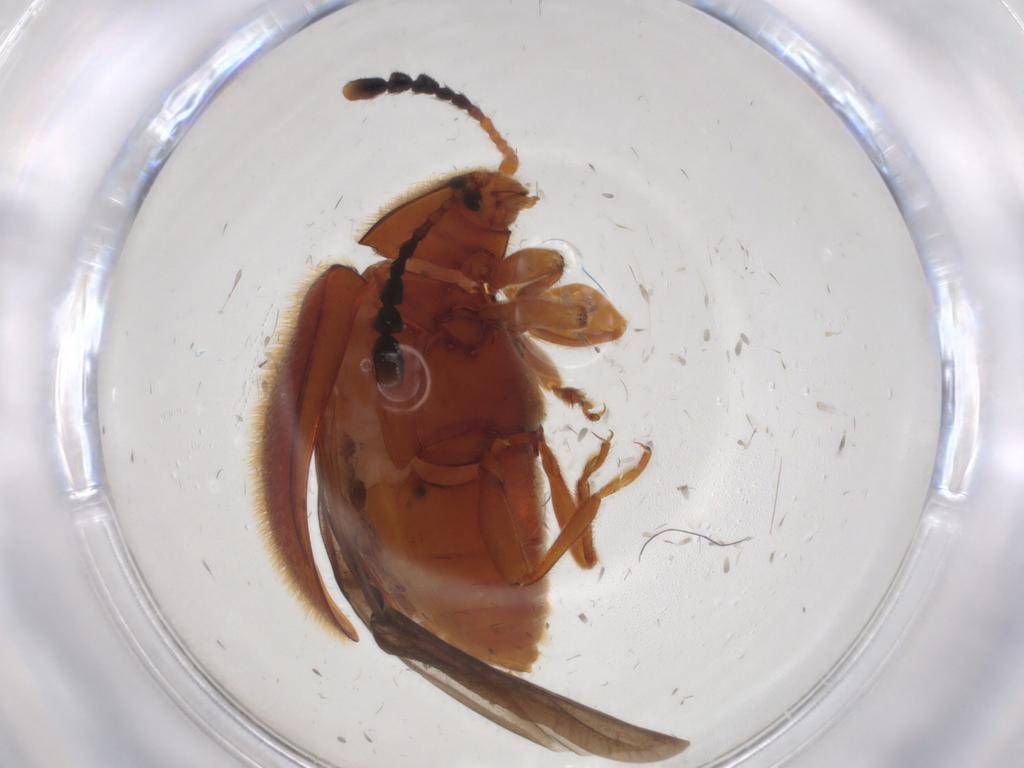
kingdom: Animalia
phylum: Arthropoda
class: Insecta
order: Coleoptera
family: Endomychidae
